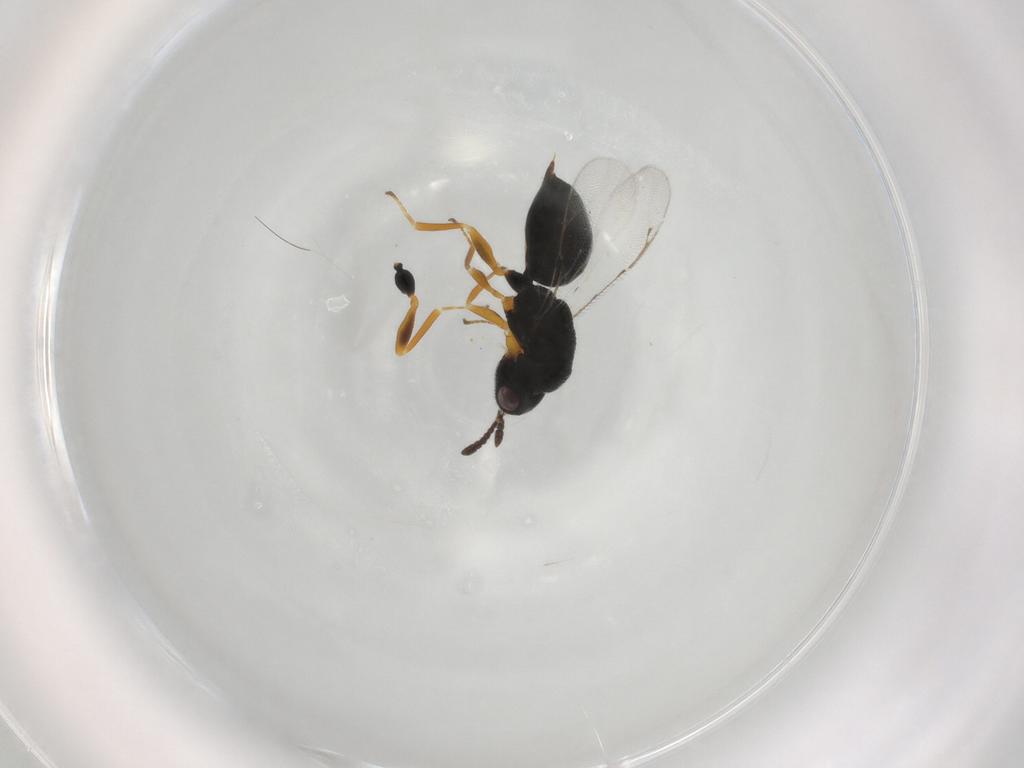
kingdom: Animalia
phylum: Arthropoda
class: Insecta
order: Hymenoptera
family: Eurytomidae
